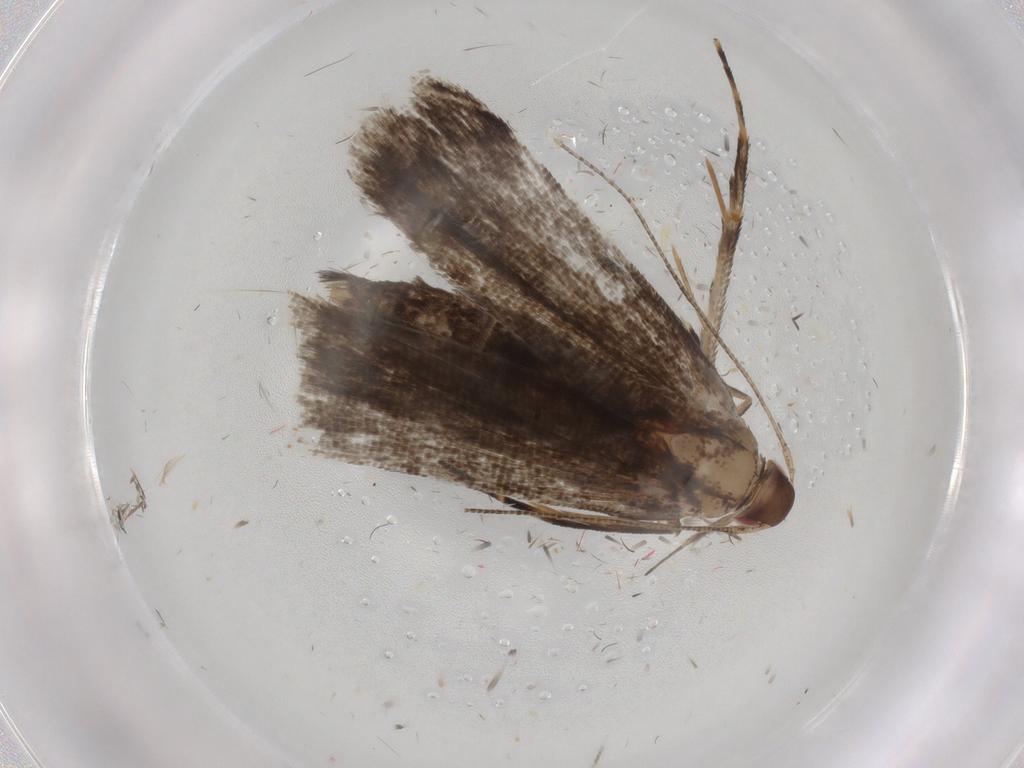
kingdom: Animalia
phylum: Arthropoda
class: Insecta
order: Lepidoptera
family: Gelechiidae
